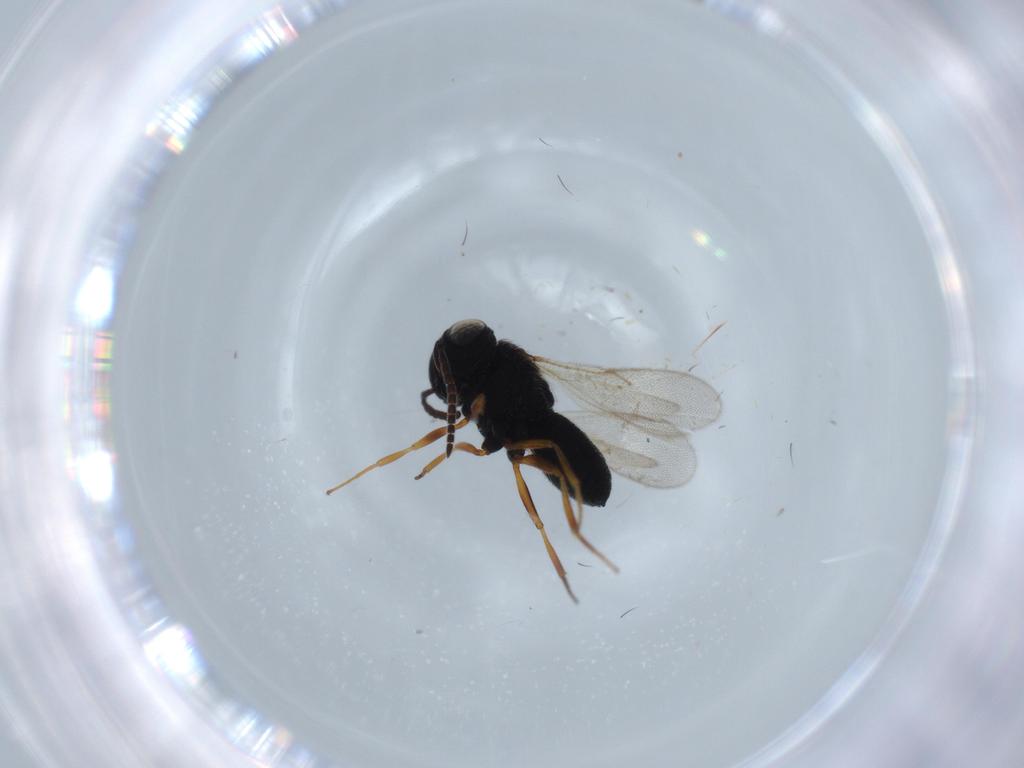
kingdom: Animalia
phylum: Arthropoda
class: Insecta
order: Hymenoptera
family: Scelionidae
